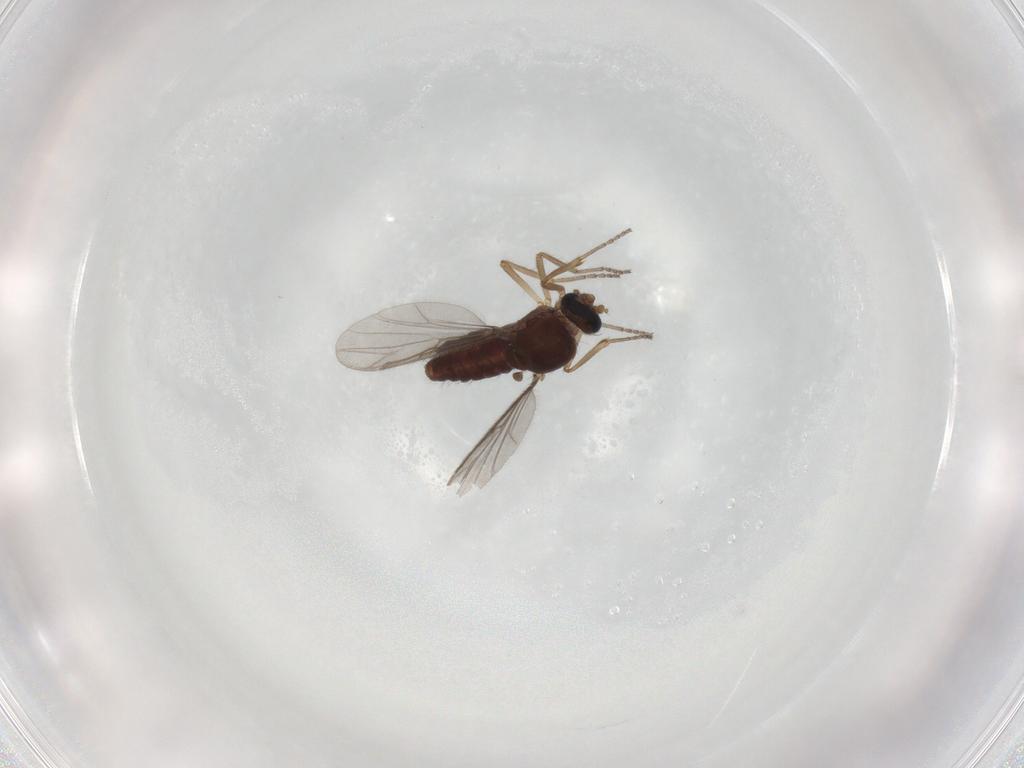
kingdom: Animalia
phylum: Arthropoda
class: Insecta
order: Diptera
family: Ceratopogonidae
